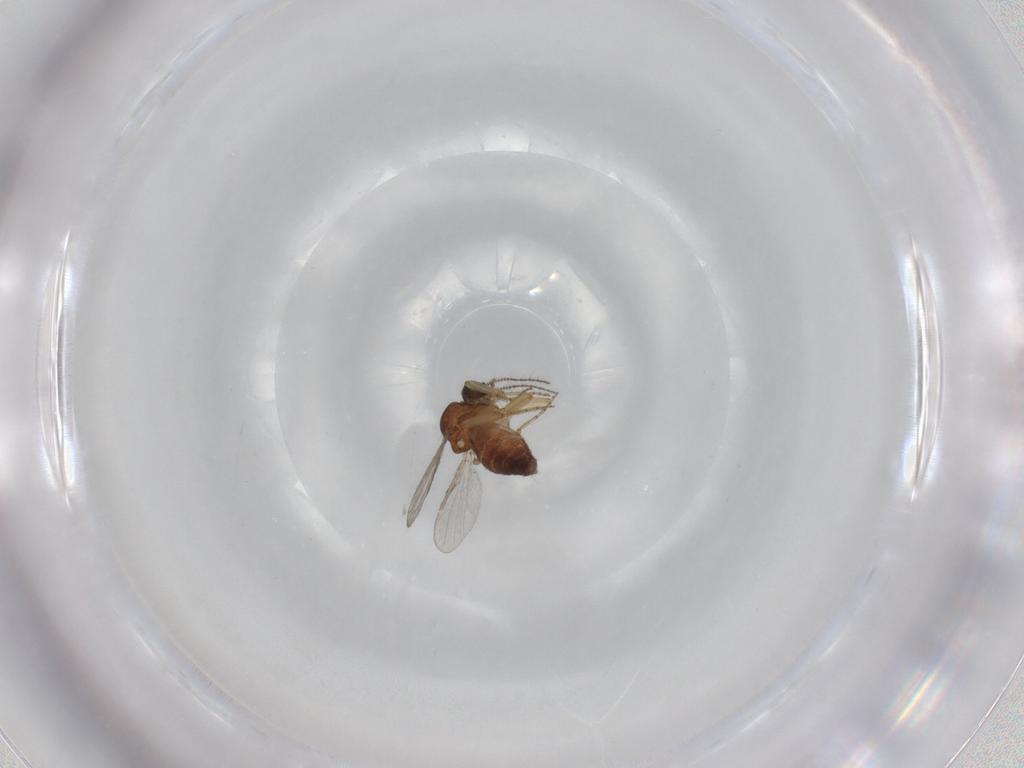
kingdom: Animalia
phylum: Arthropoda
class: Insecta
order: Diptera
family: Ceratopogonidae
